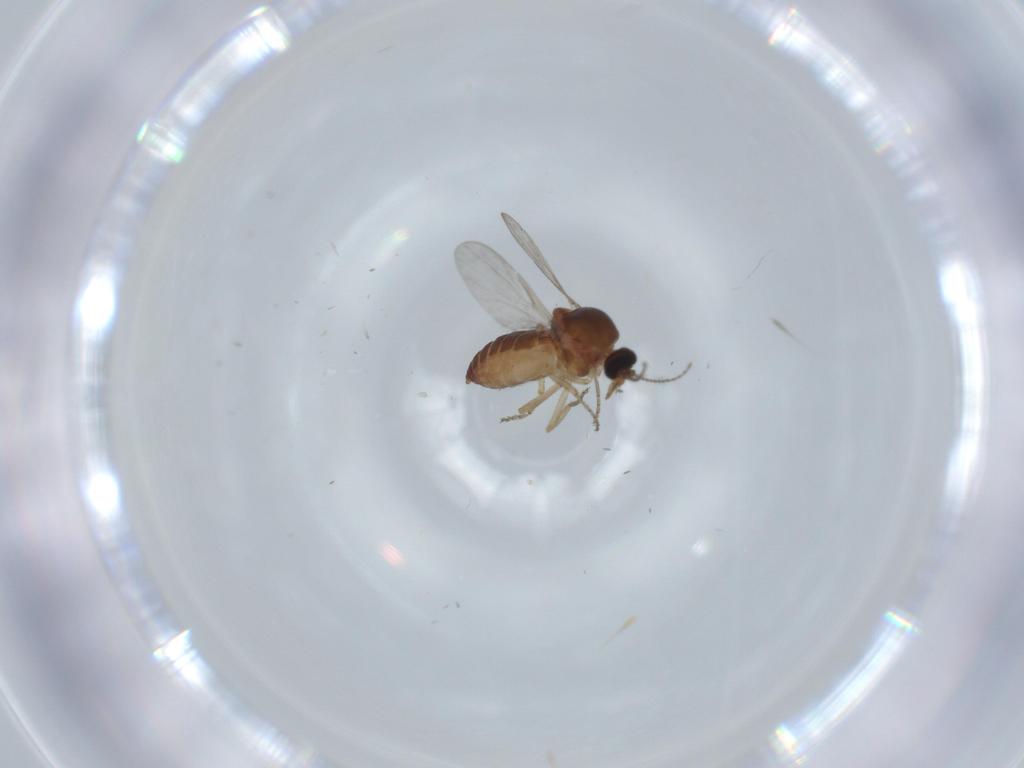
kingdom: Animalia
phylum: Arthropoda
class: Insecta
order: Diptera
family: Ceratopogonidae
